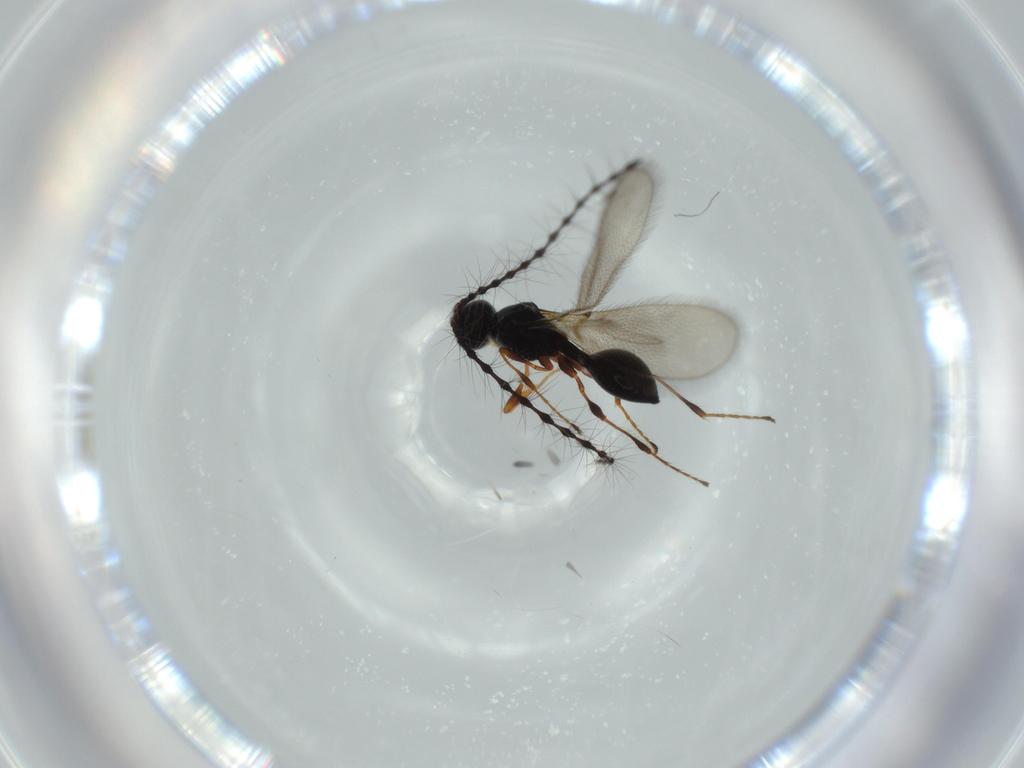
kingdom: Animalia
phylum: Arthropoda
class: Insecta
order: Hymenoptera
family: Diapriidae
